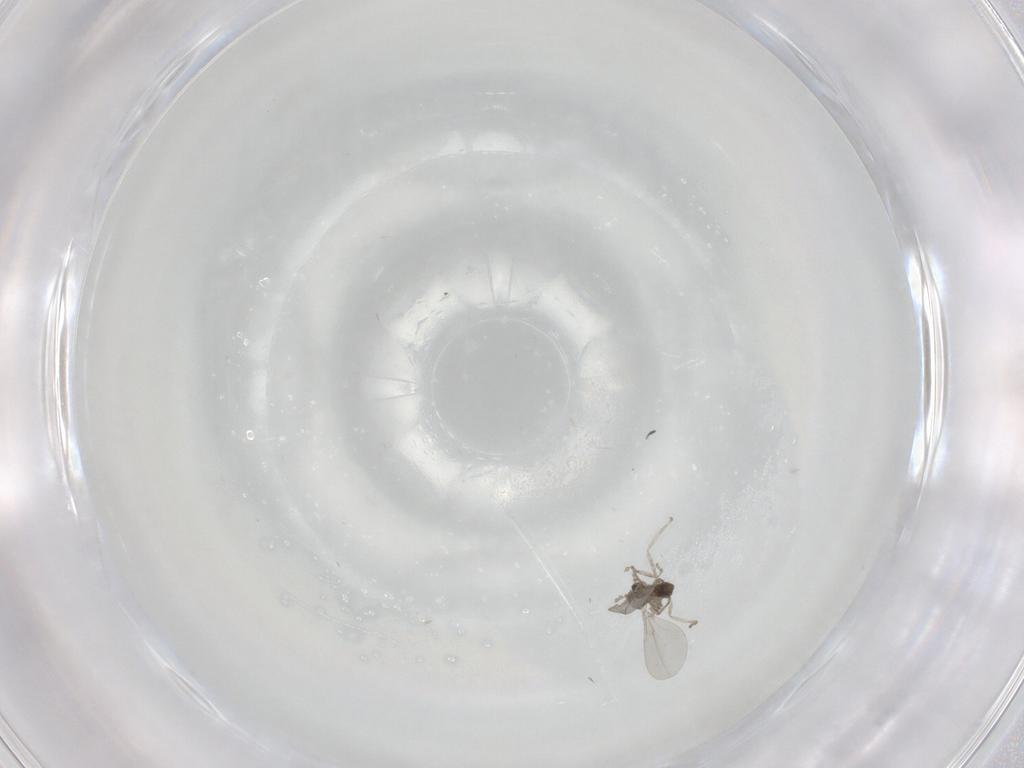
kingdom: Animalia
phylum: Arthropoda
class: Insecta
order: Diptera
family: Cecidomyiidae
